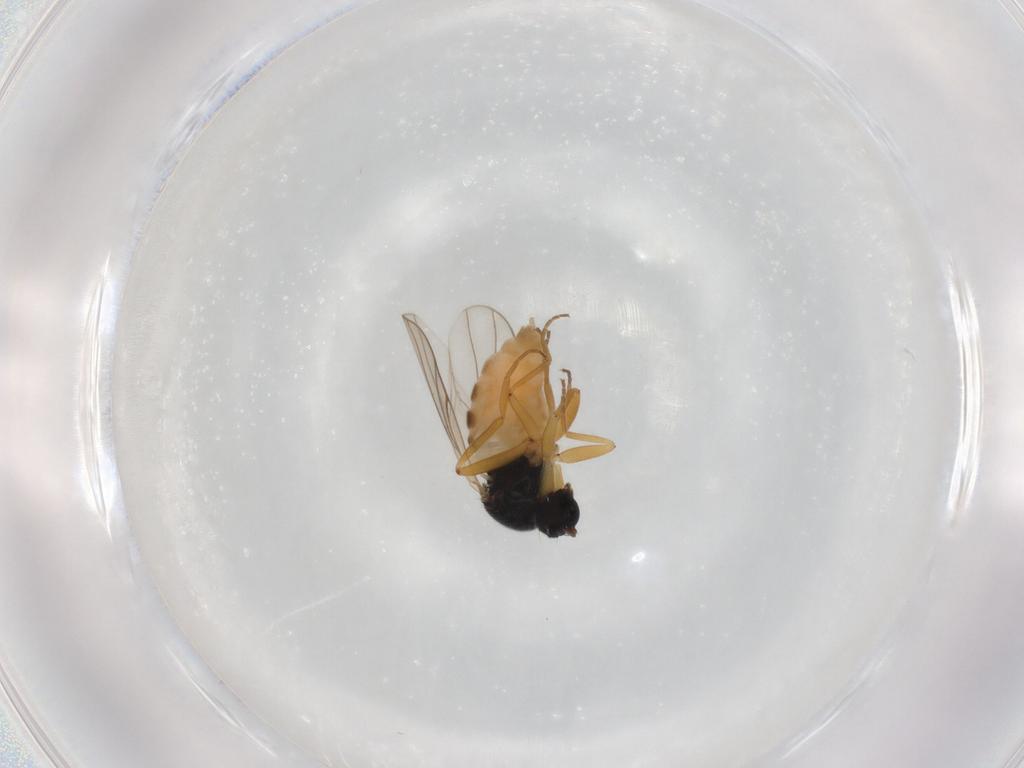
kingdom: Animalia
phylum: Arthropoda
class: Insecta
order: Diptera
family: Hybotidae
